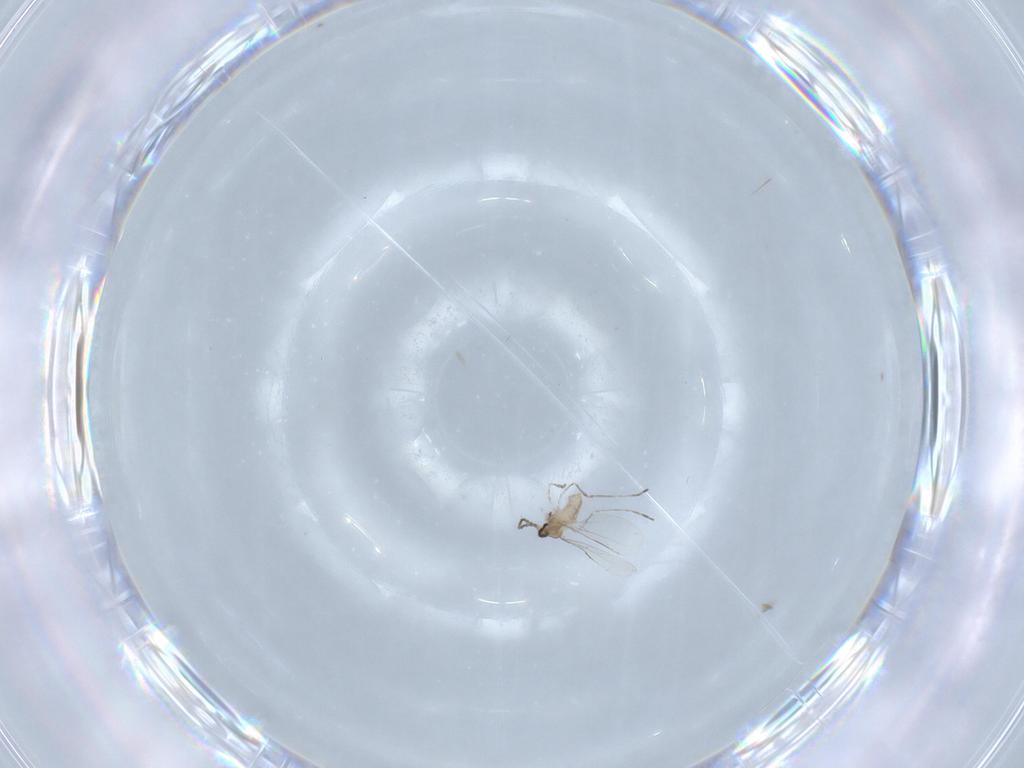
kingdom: Animalia
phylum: Arthropoda
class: Insecta
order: Diptera
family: Cecidomyiidae
